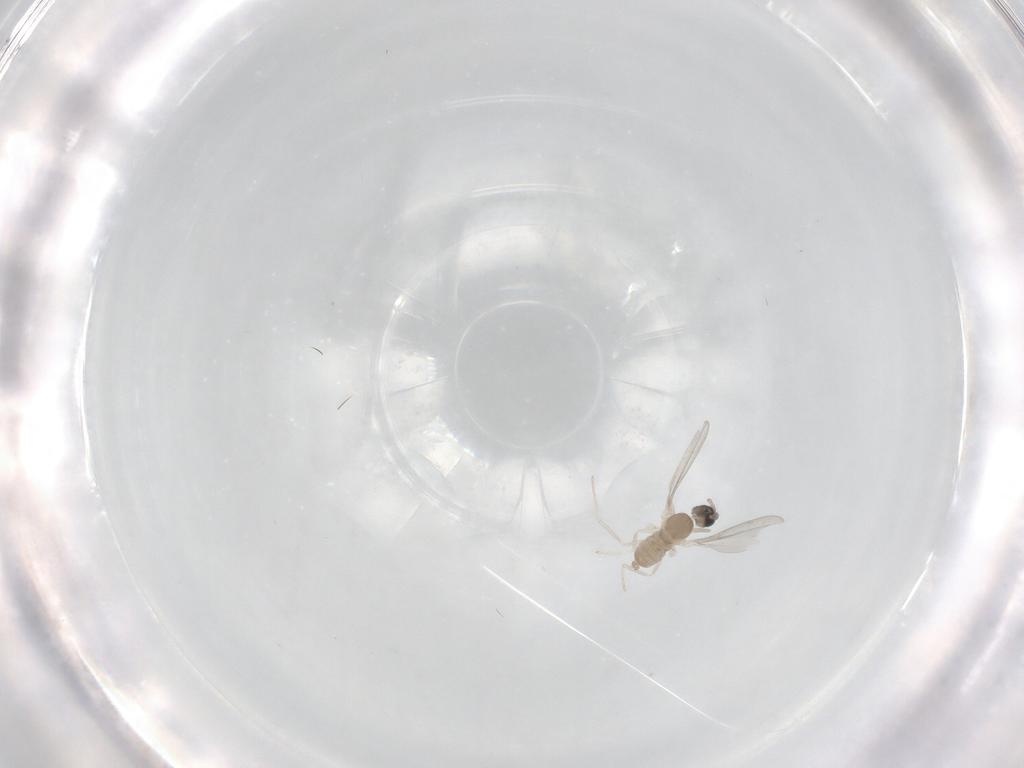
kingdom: Animalia
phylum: Arthropoda
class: Insecta
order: Diptera
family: Cecidomyiidae
